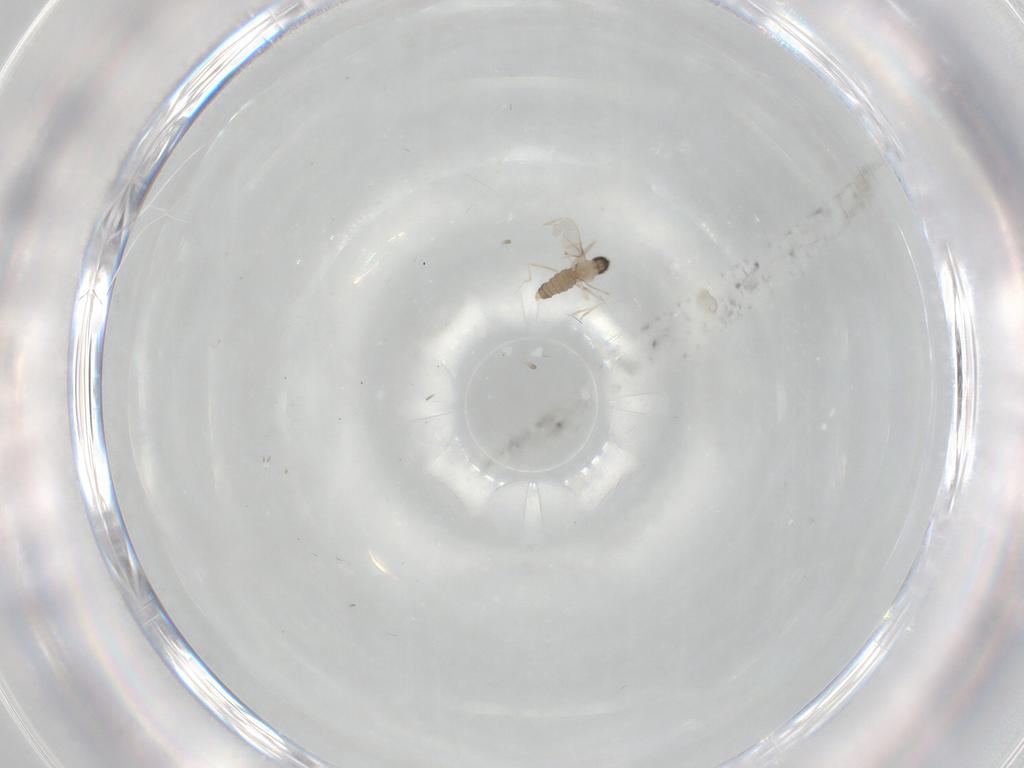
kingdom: Animalia
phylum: Arthropoda
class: Insecta
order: Diptera
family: Cecidomyiidae
